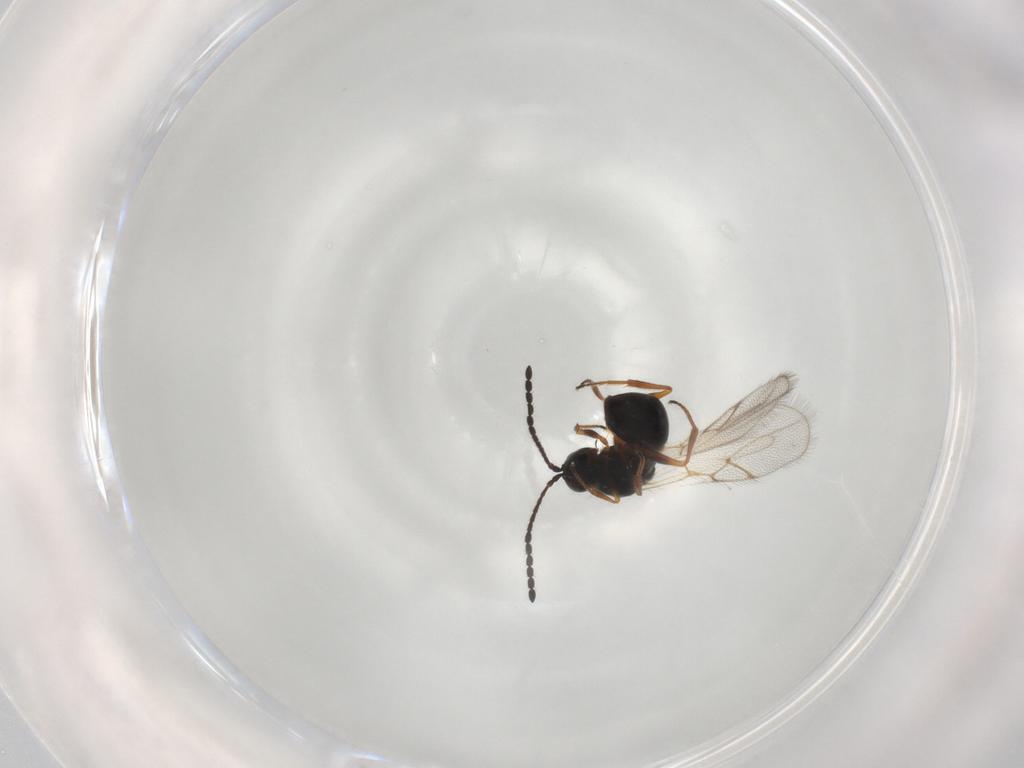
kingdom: Animalia
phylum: Arthropoda
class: Insecta
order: Hymenoptera
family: Figitidae
